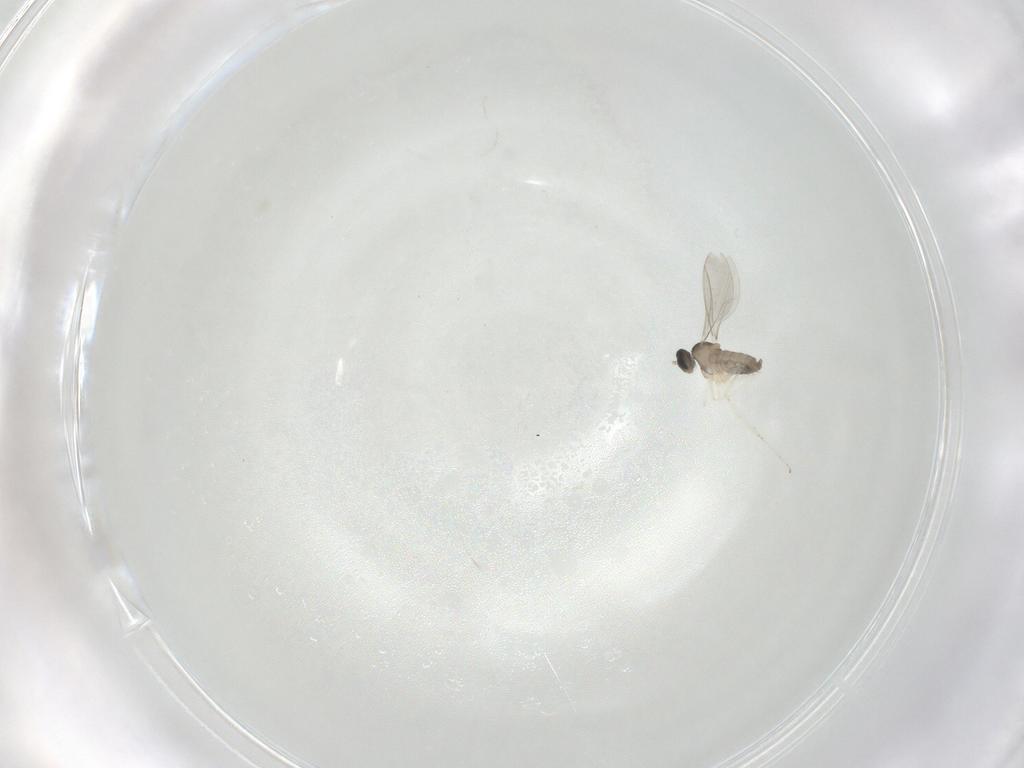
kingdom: Animalia
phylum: Arthropoda
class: Insecta
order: Diptera
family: Cecidomyiidae
